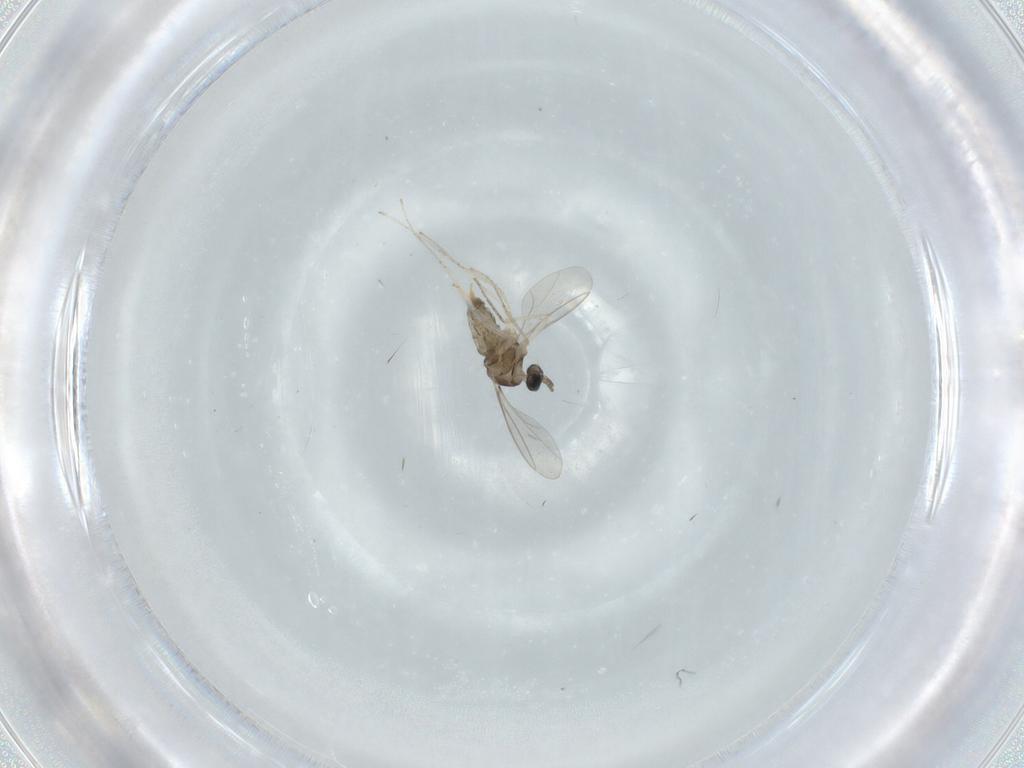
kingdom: Animalia
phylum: Arthropoda
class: Insecta
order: Diptera
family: Cecidomyiidae
